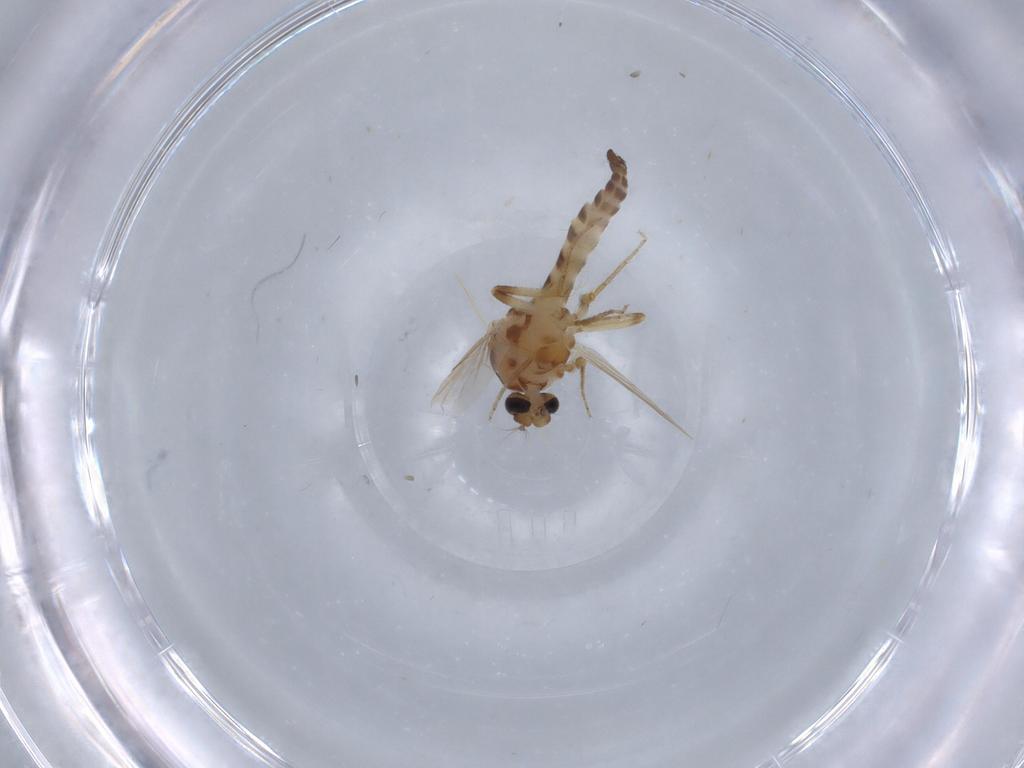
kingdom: Animalia
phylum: Arthropoda
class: Insecta
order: Diptera
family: Ceratopogonidae
